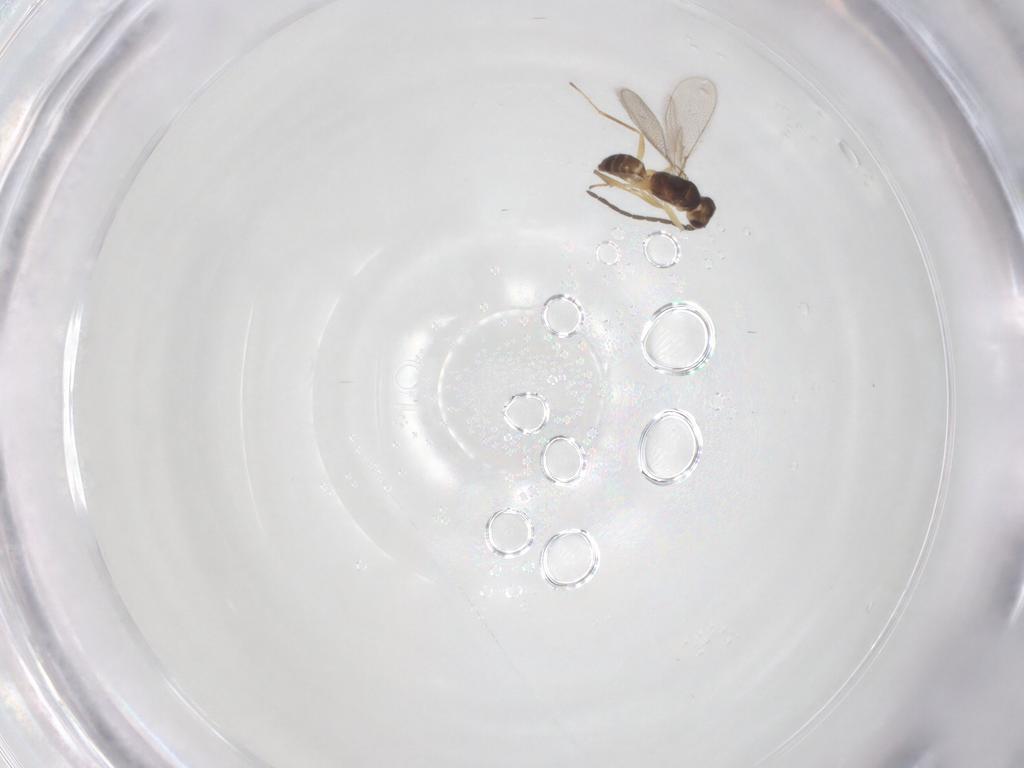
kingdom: Animalia
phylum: Arthropoda
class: Insecta
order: Hymenoptera
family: Mymaridae
